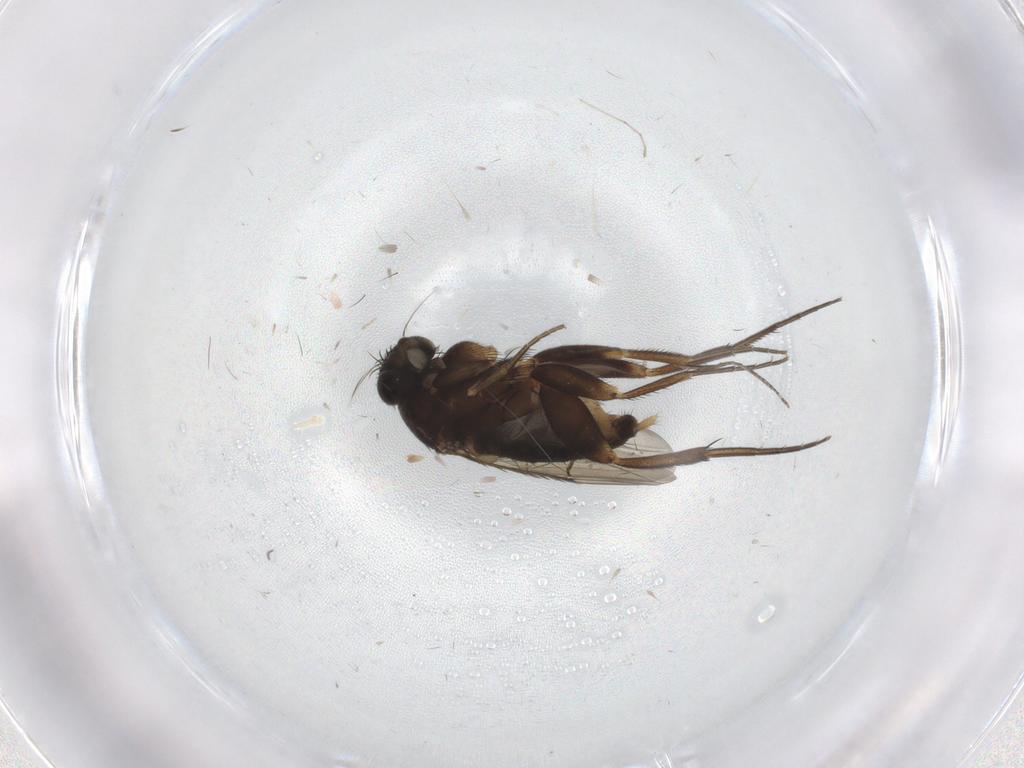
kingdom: Animalia
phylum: Arthropoda
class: Insecta
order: Diptera
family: Phoridae
